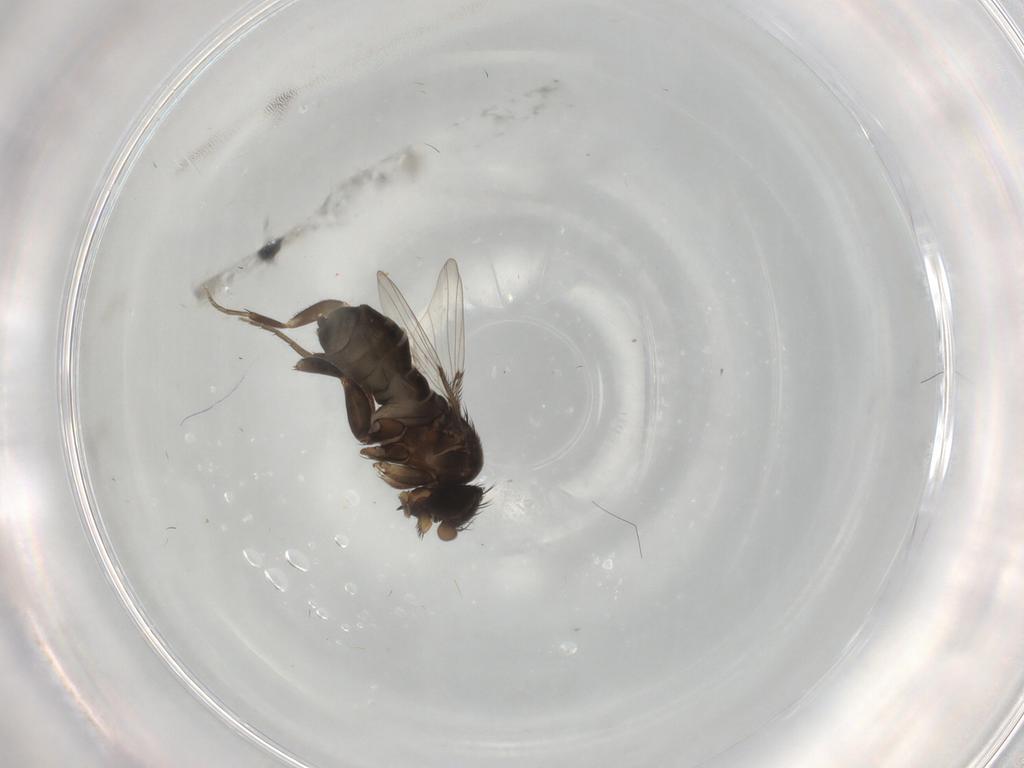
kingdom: Animalia
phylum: Arthropoda
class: Insecta
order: Diptera
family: Phoridae
